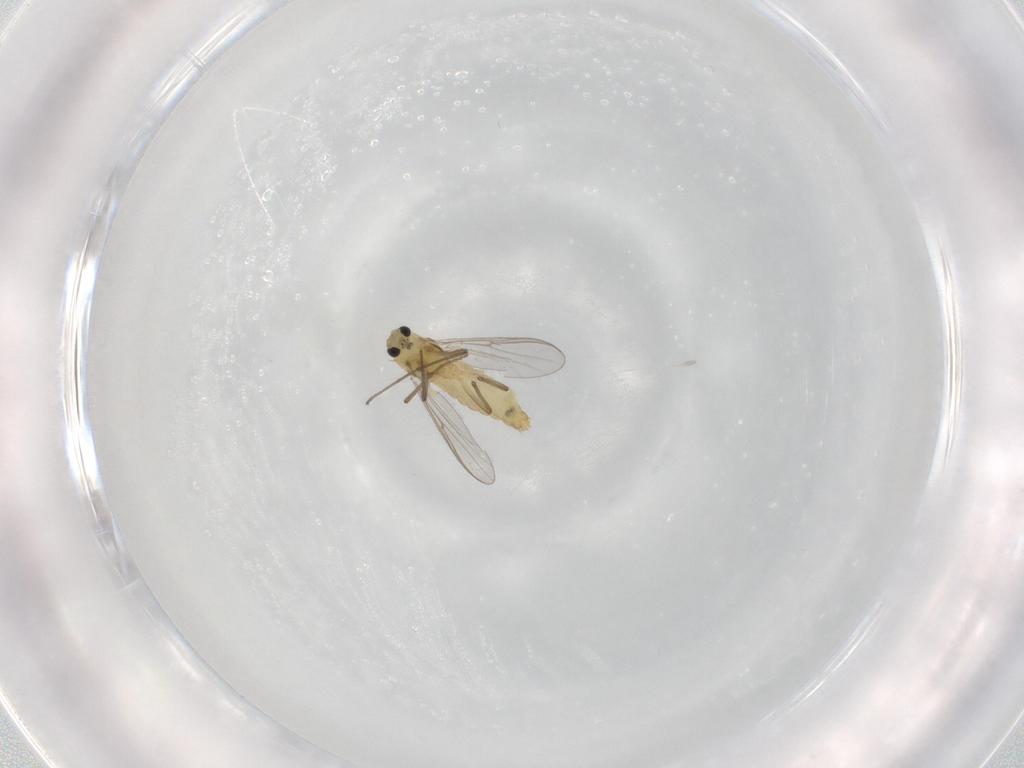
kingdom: Animalia
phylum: Arthropoda
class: Insecta
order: Diptera
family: Chironomidae
